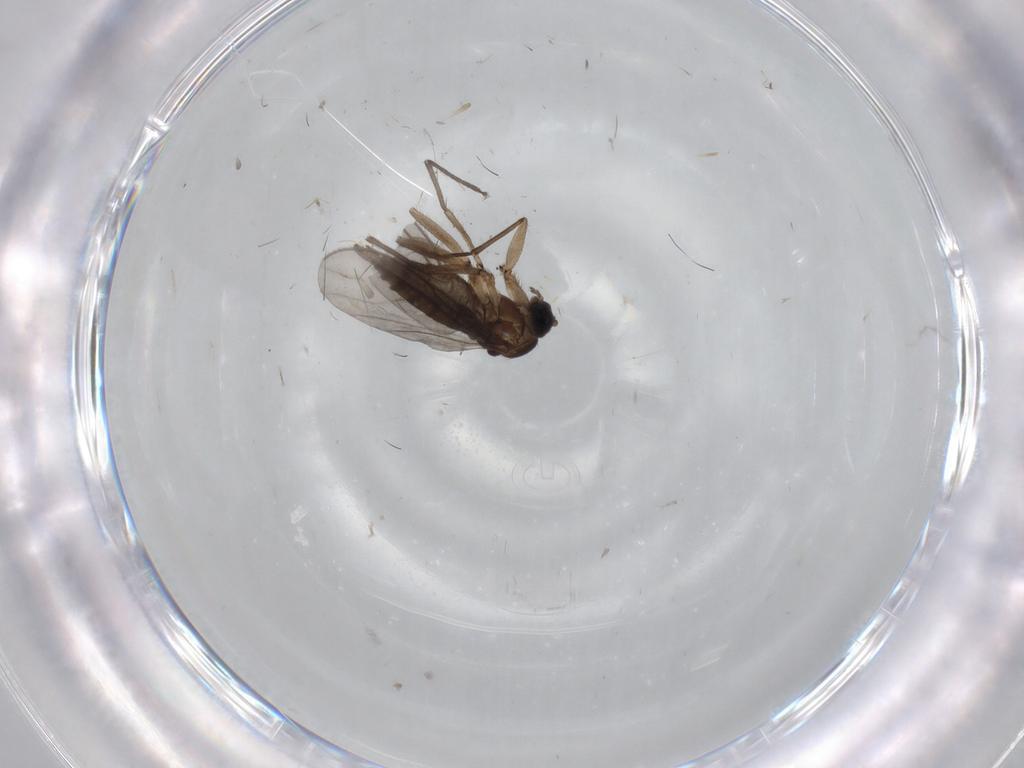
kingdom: Animalia
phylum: Arthropoda
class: Insecta
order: Diptera
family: Sciaridae
